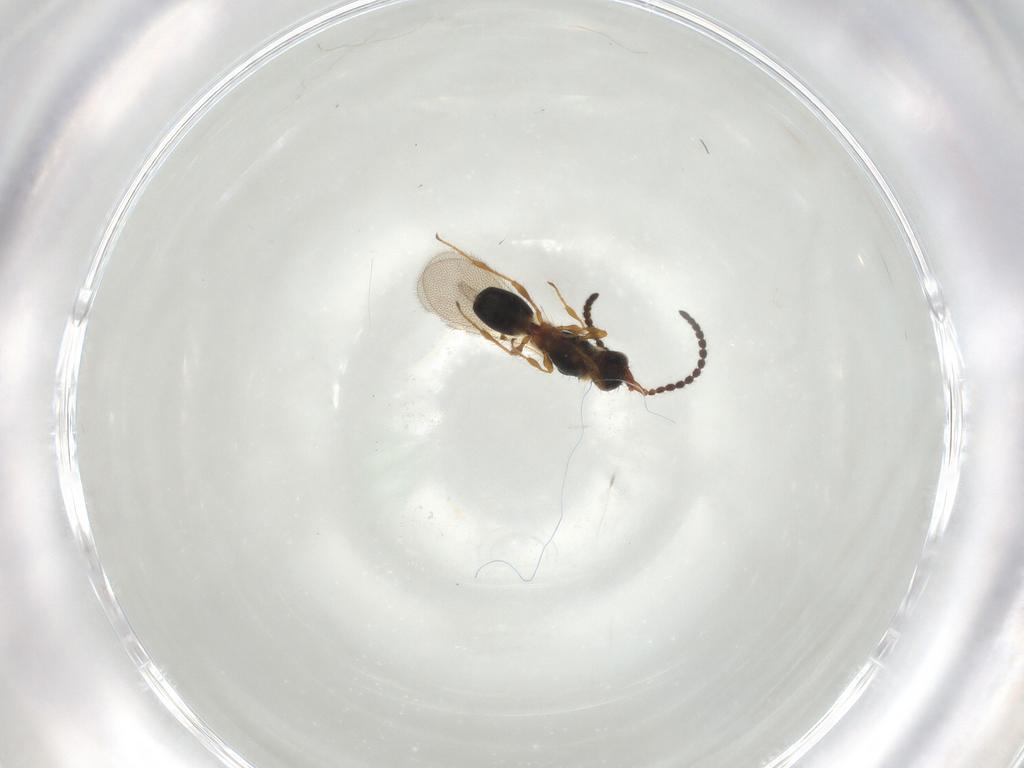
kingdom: Animalia
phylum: Arthropoda
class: Insecta
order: Hymenoptera
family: Diapriidae
